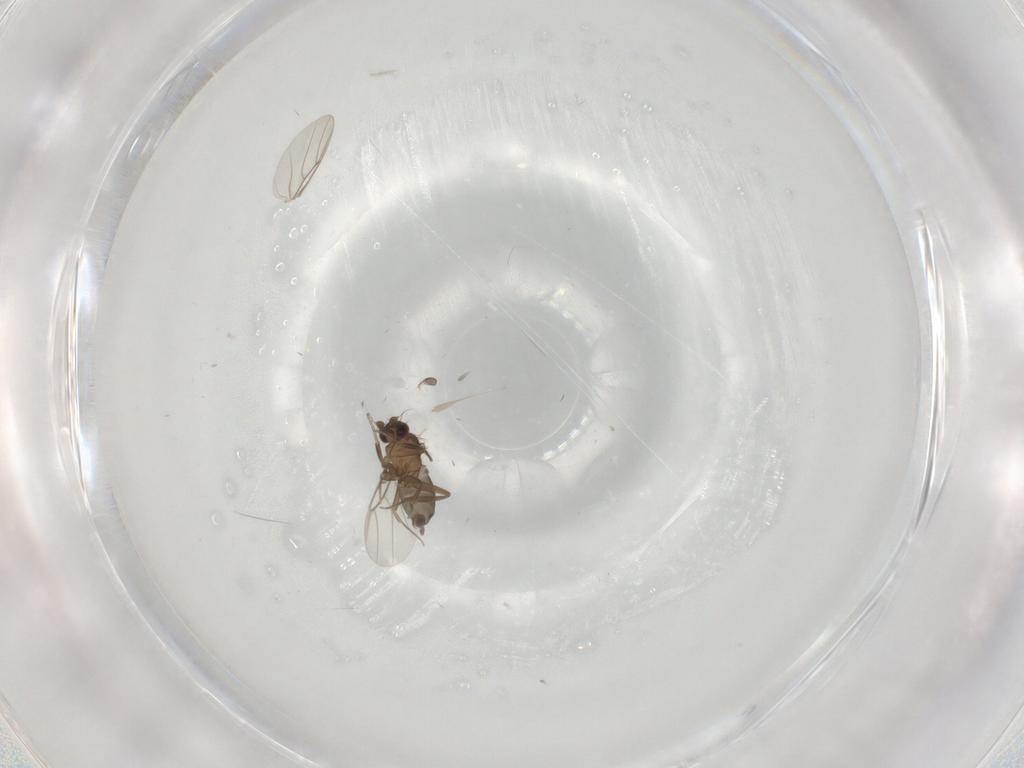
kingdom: Animalia
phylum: Arthropoda
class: Insecta
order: Diptera
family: Phoridae
